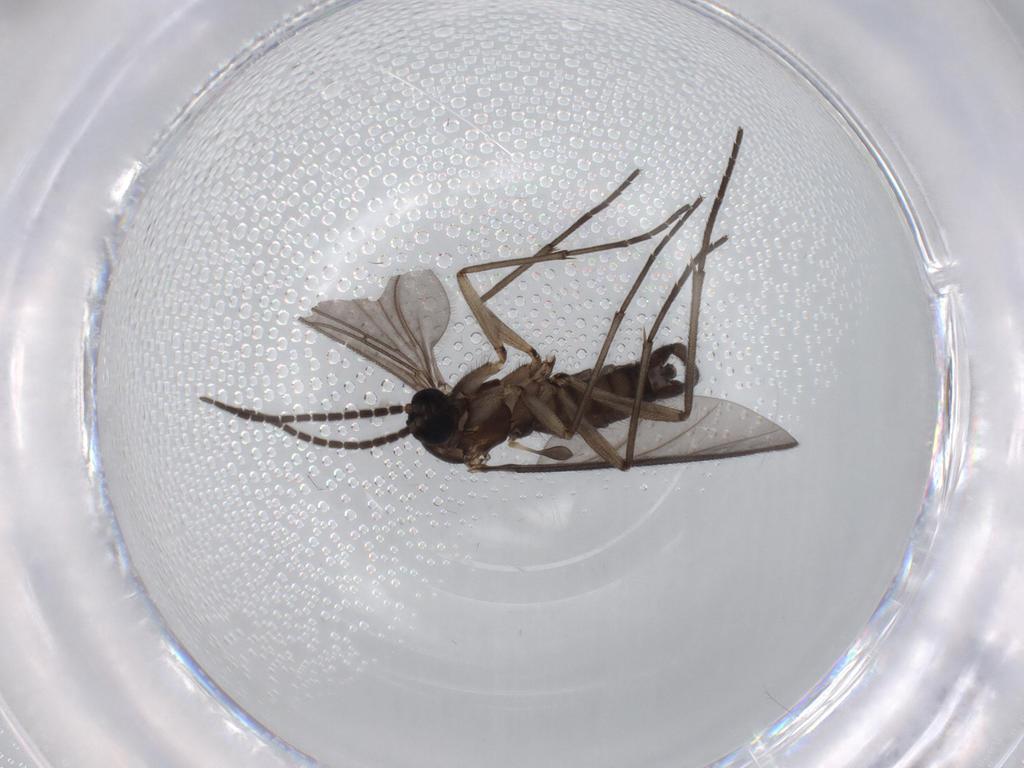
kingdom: Animalia
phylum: Arthropoda
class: Insecta
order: Diptera
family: Sciaridae
